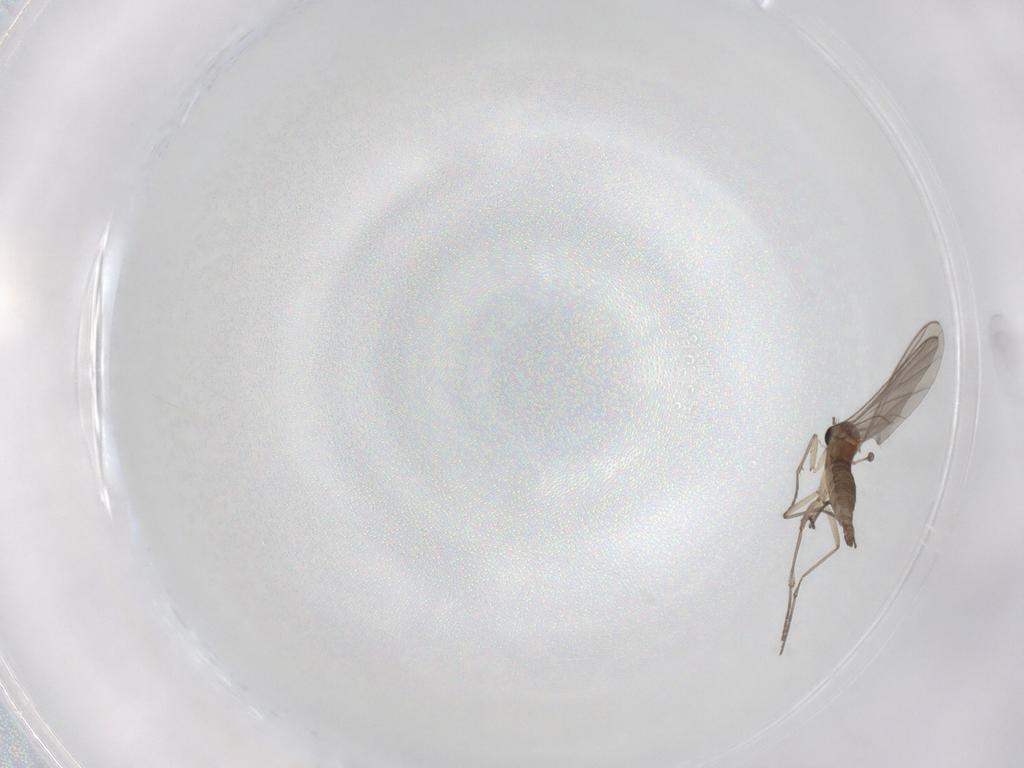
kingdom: Animalia
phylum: Arthropoda
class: Insecta
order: Diptera
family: Sciaridae
